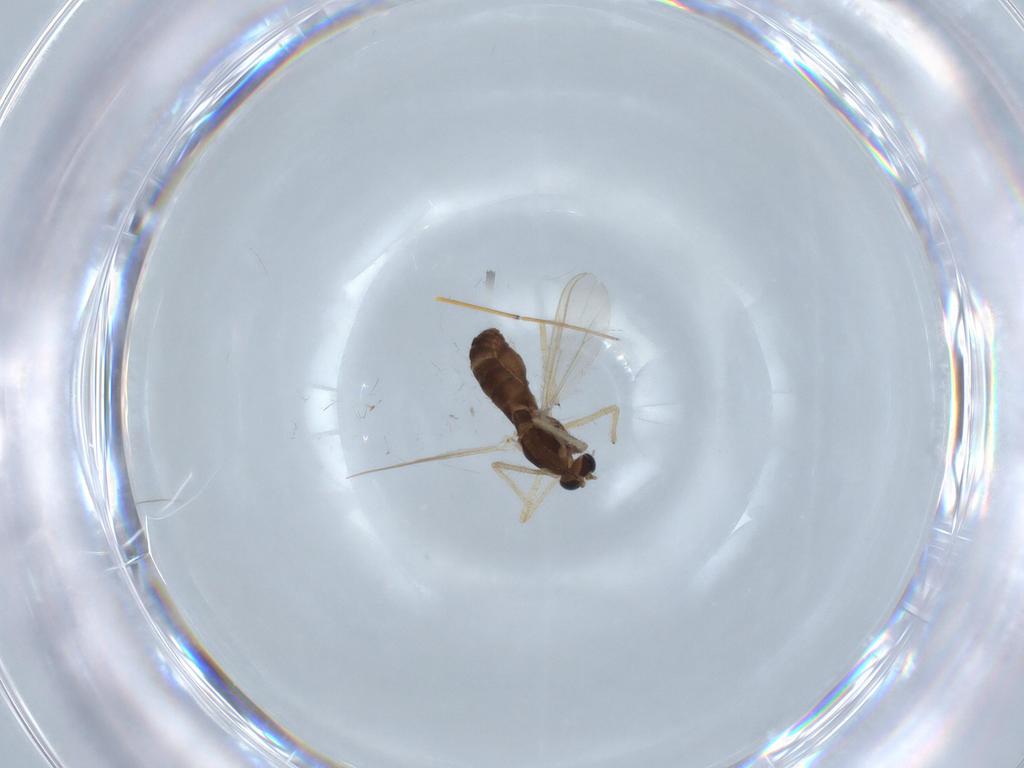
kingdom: Animalia
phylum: Arthropoda
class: Insecta
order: Diptera
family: Chironomidae
